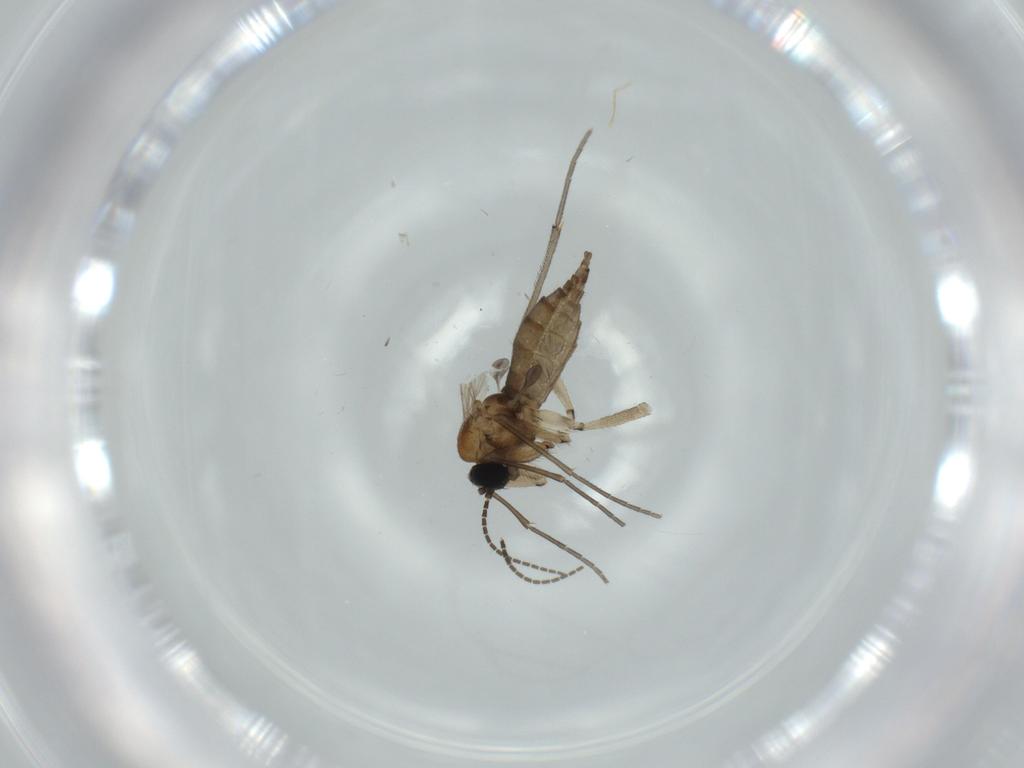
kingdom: Animalia
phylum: Arthropoda
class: Insecta
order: Diptera
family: Sciaridae
